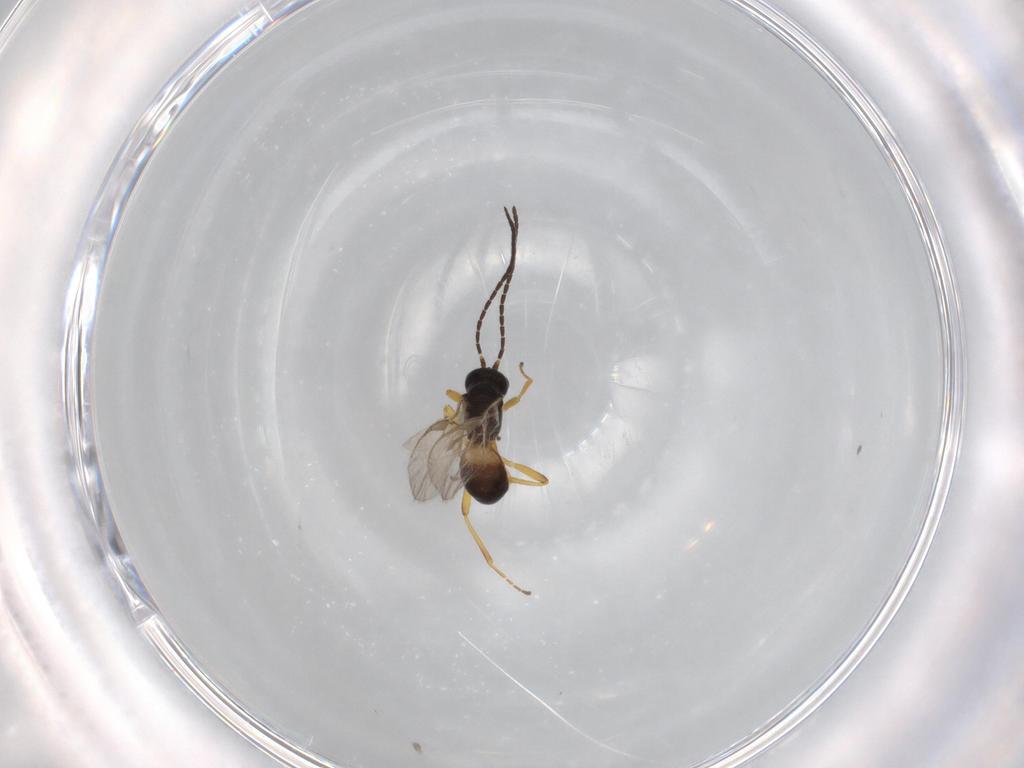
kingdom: Animalia
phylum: Arthropoda
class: Insecta
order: Hymenoptera
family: Braconidae
